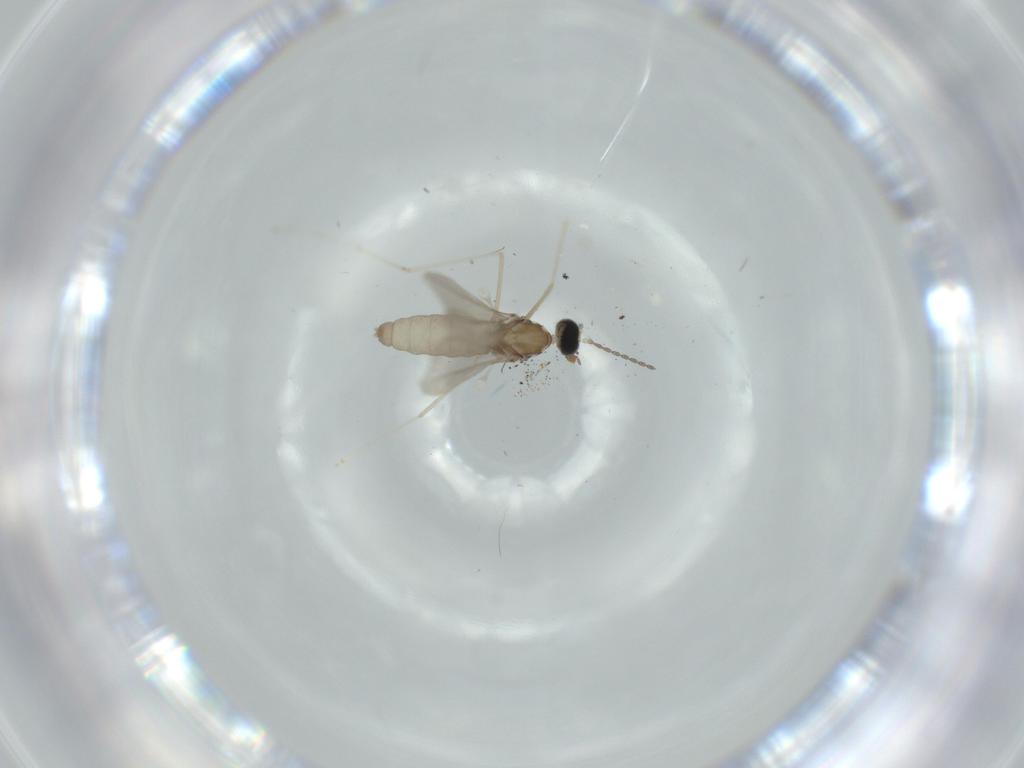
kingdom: Animalia
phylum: Arthropoda
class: Insecta
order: Diptera
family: Cecidomyiidae
